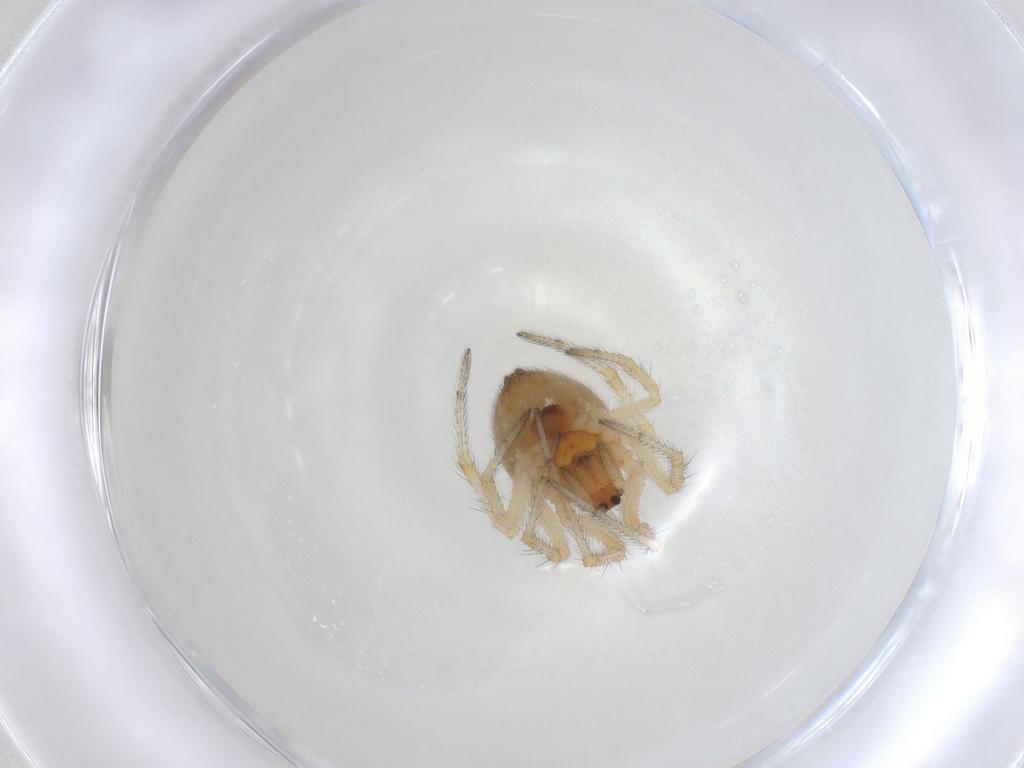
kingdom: Animalia
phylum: Arthropoda
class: Arachnida
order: Araneae
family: Theridiidae
